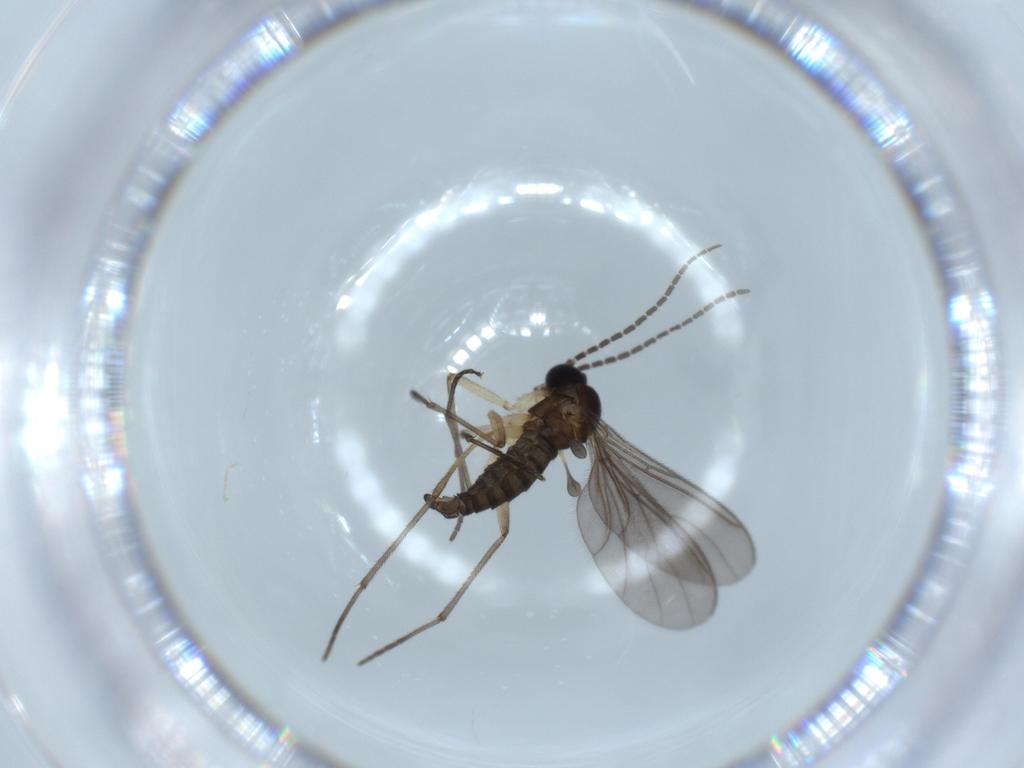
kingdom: Animalia
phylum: Arthropoda
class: Insecta
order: Diptera
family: Sciaridae
